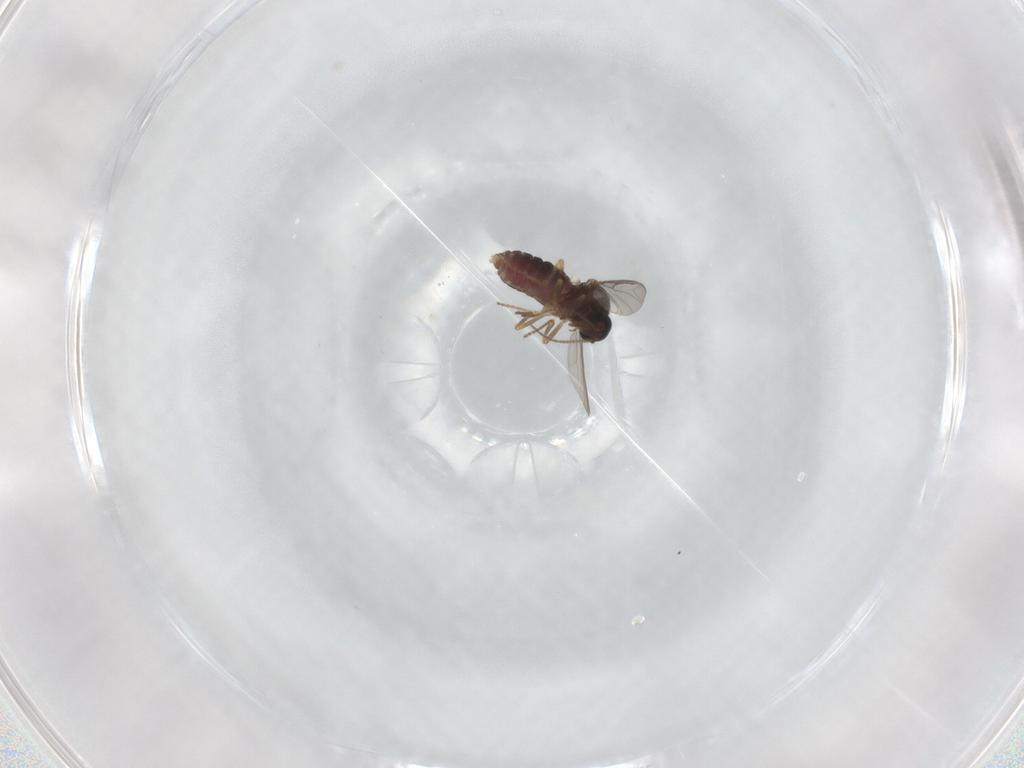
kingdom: Animalia
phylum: Arthropoda
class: Insecta
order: Diptera
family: Ceratopogonidae
